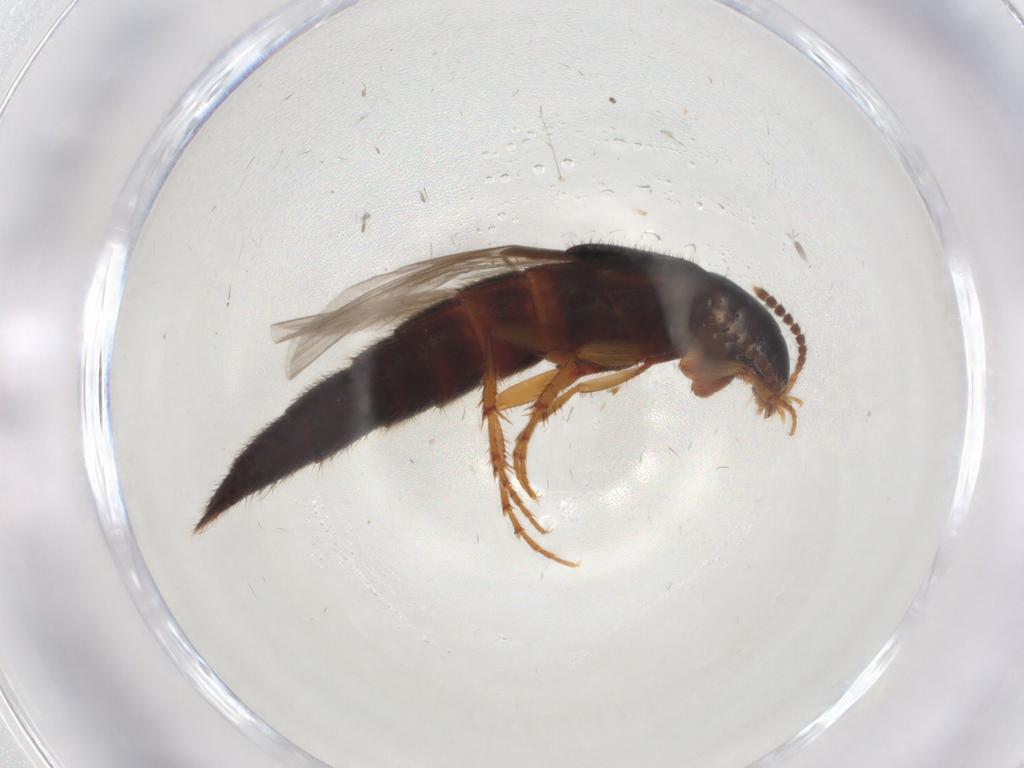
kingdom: Animalia
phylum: Arthropoda
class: Insecta
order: Coleoptera
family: Staphylinidae
